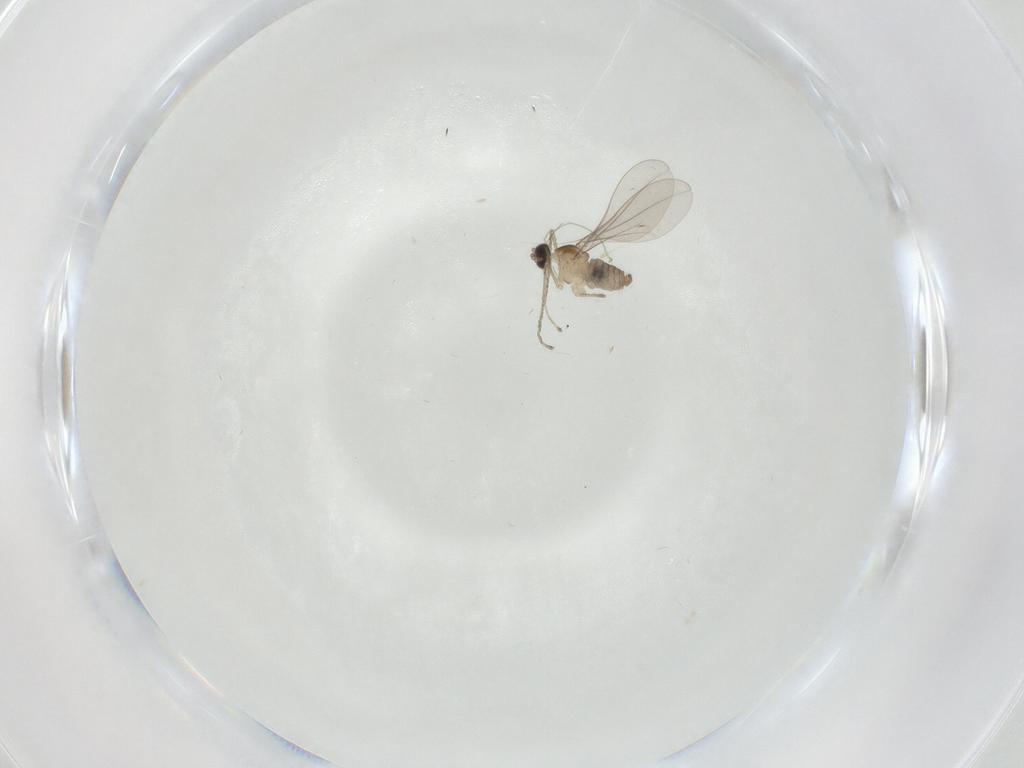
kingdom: Animalia
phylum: Arthropoda
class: Insecta
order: Diptera
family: Cecidomyiidae
